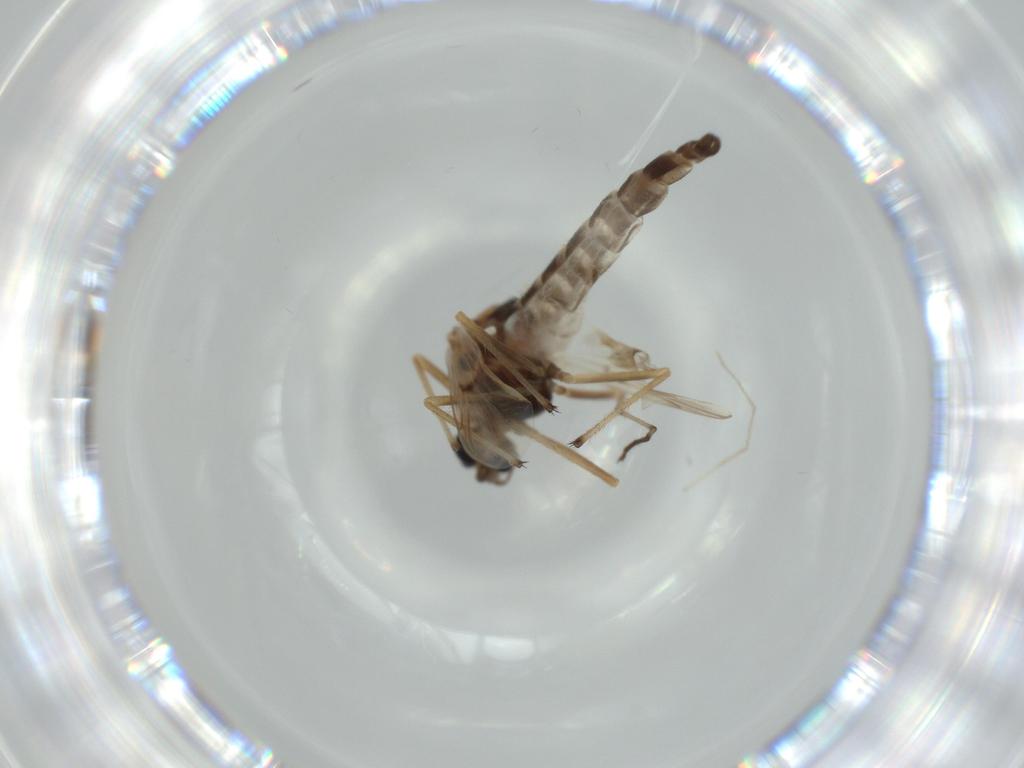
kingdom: Animalia
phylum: Arthropoda
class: Insecta
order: Diptera
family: Chironomidae
